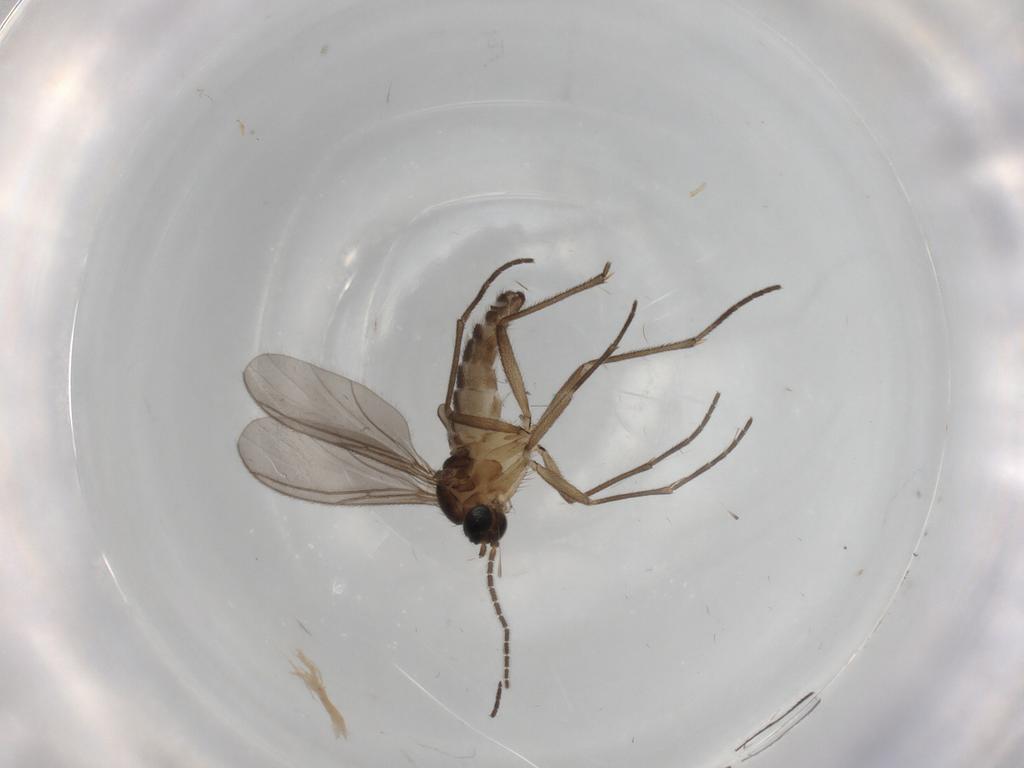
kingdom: Animalia
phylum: Arthropoda
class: Insecta
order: Diptera
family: Sciaridae
